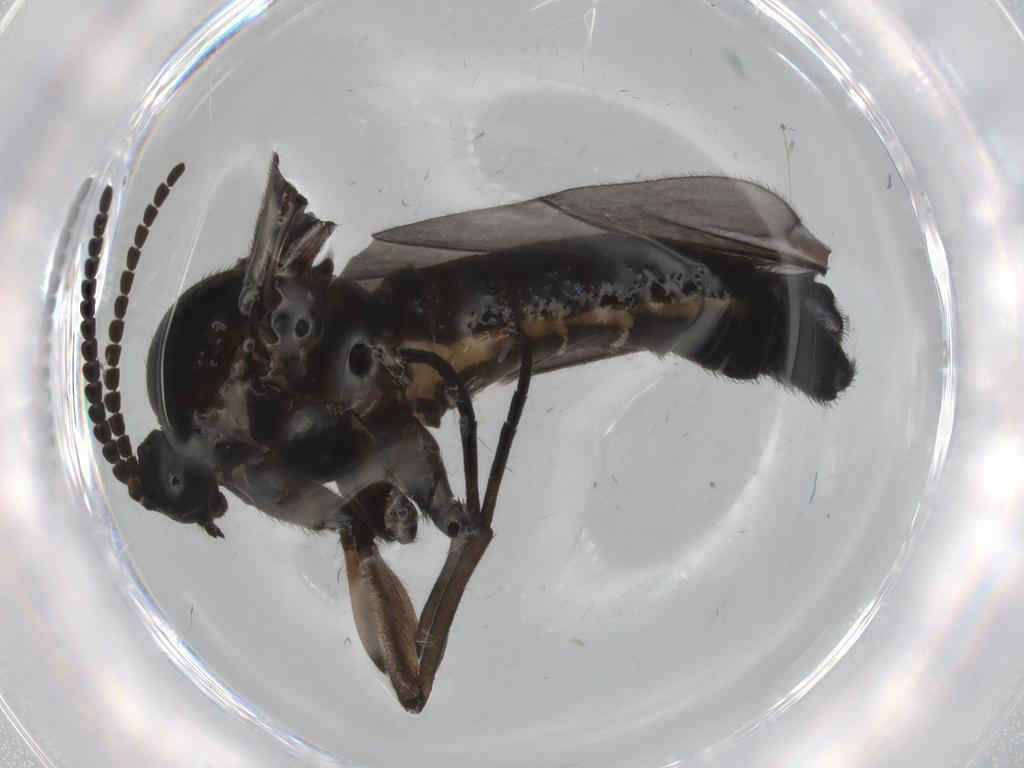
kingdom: Animalia
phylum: Arthropoda
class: Insecta
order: Diptera
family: Sciaridae
